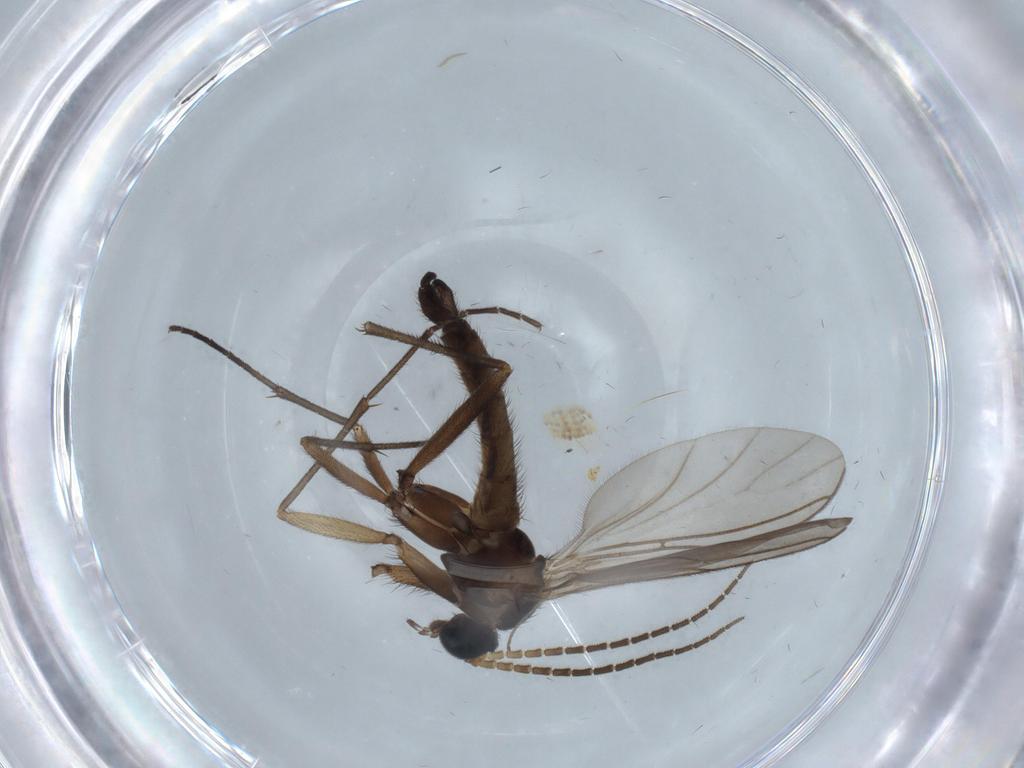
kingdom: Animalia
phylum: Arthropoda
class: Insecta
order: Diptera
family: Sciaridae
